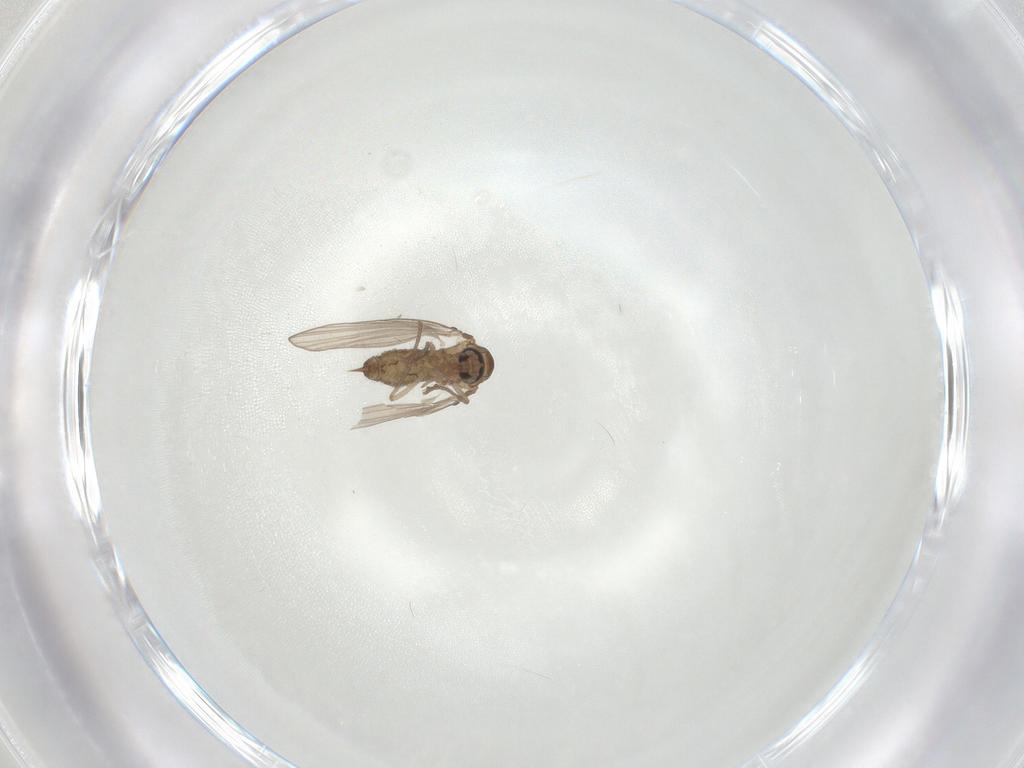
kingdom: Animalia
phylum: Arthropoda
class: Insecta
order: Diptera
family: Psychodidae
